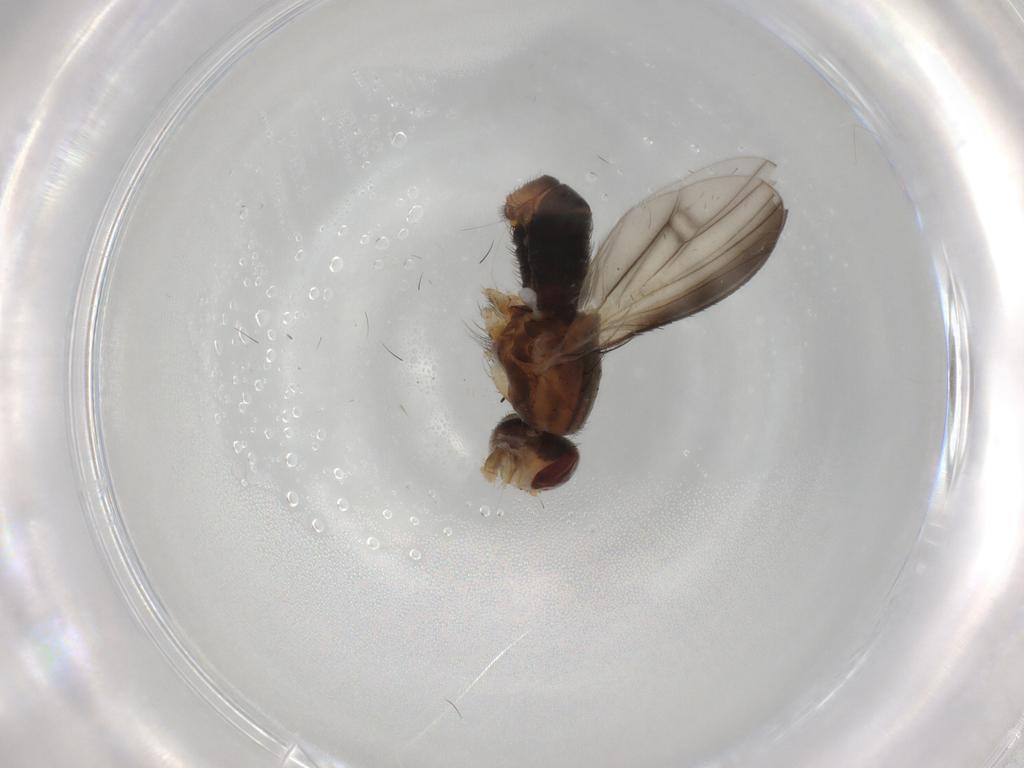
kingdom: Animalia
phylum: Arthropoda
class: Insecta
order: Diptera
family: Heleomyzidae
